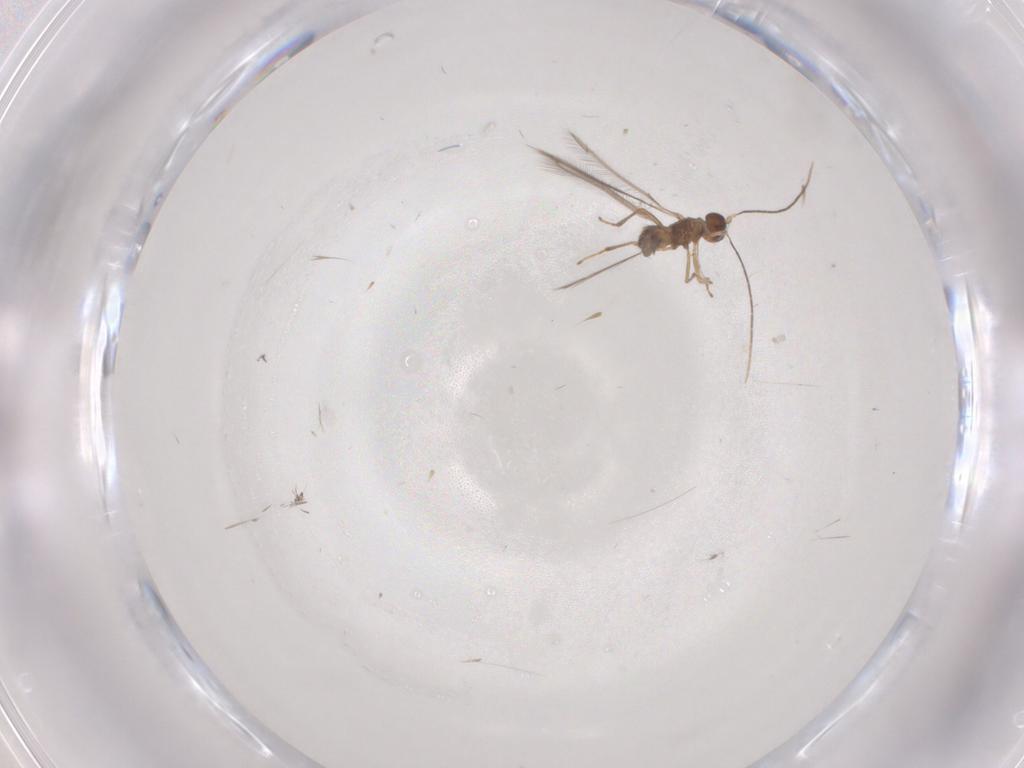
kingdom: Animalia
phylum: Arthropoda
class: Insecta
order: Hymenoptera
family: Mymaridae
